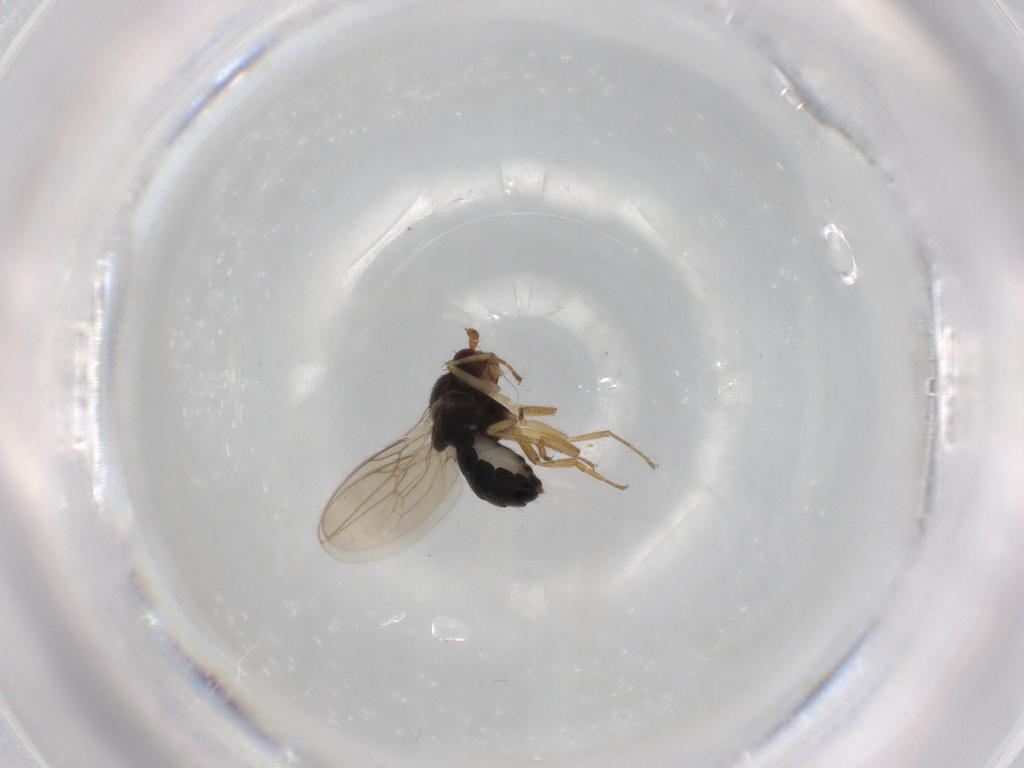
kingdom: Animalia
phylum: Arthropoda
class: Insecta
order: Diptera
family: Sphaeroceridae
